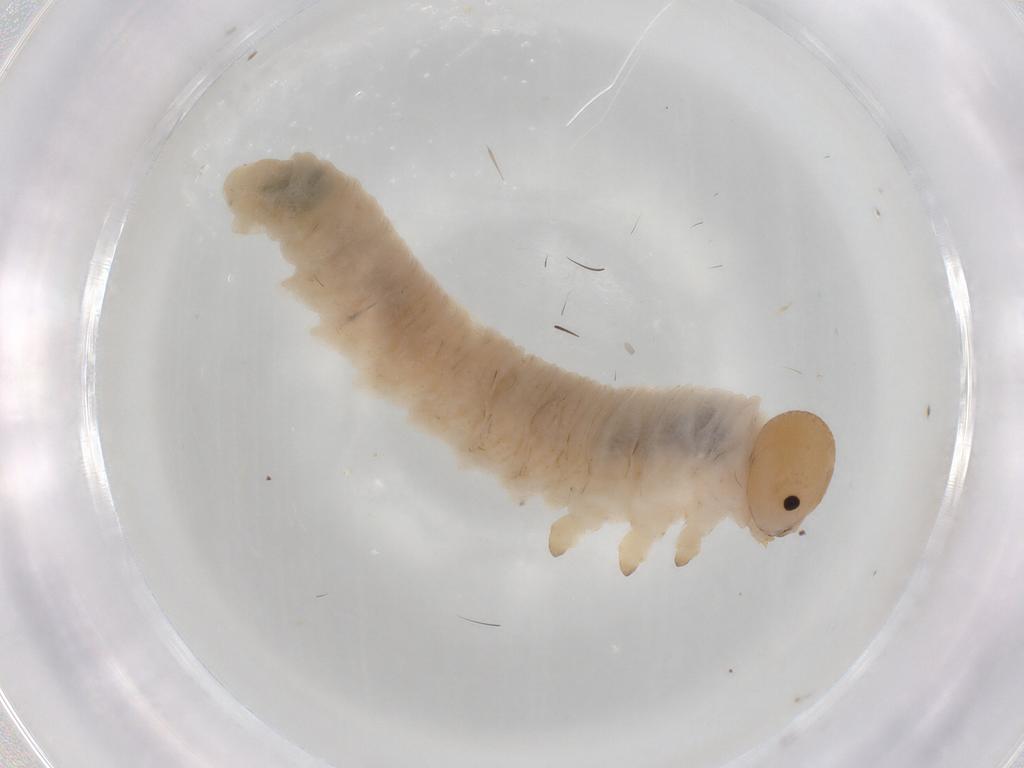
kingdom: Animalia
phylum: Arthropoda
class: Insecta
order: Hymenoptera
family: Tenthredinidae
